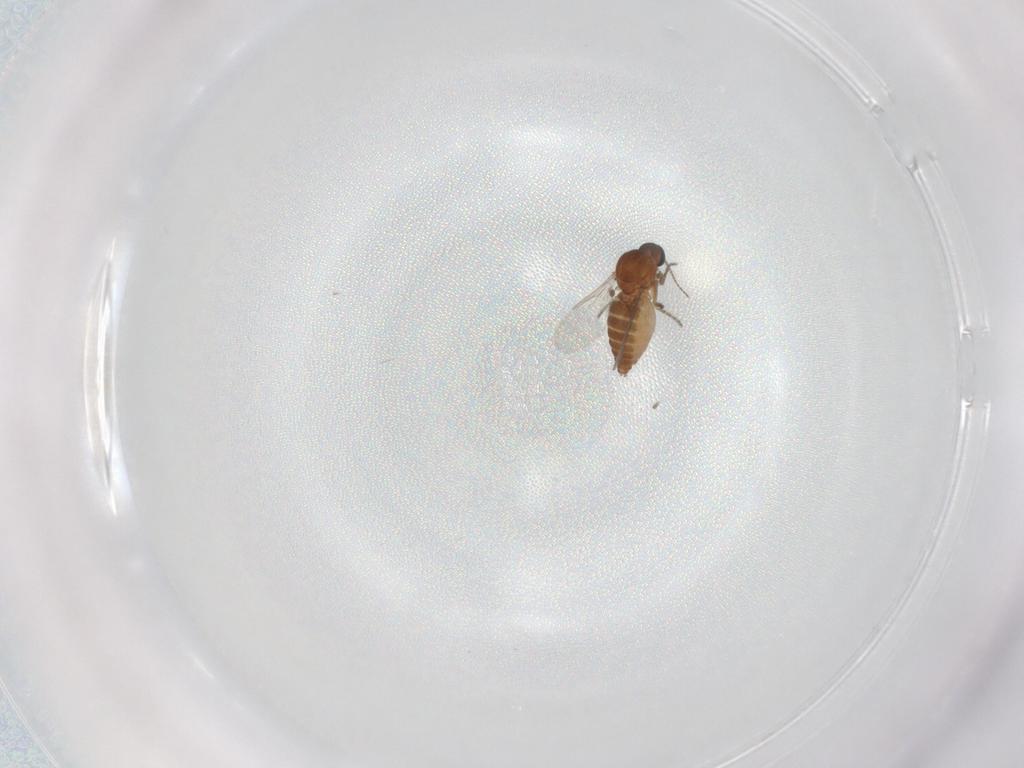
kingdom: Animalia
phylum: Arthropoda
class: Insecta
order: Diptera
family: Ceratopogonidae
